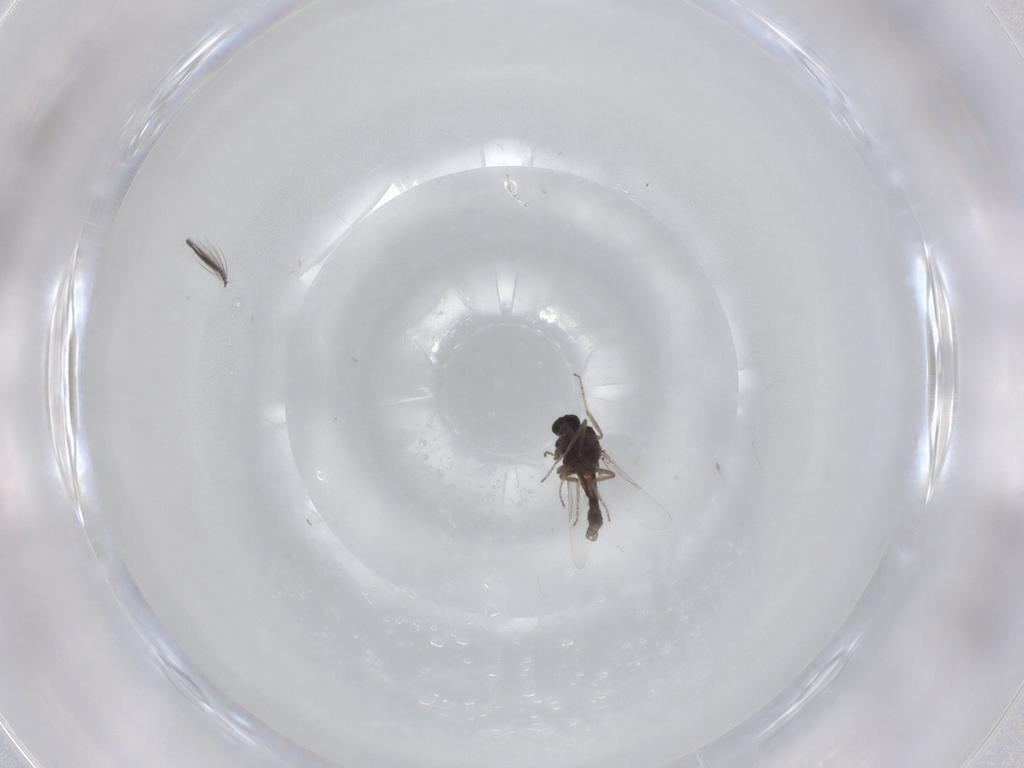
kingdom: Animalia
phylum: Arthropoda
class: Insecta
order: Diptera
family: Ceratopogonidae
